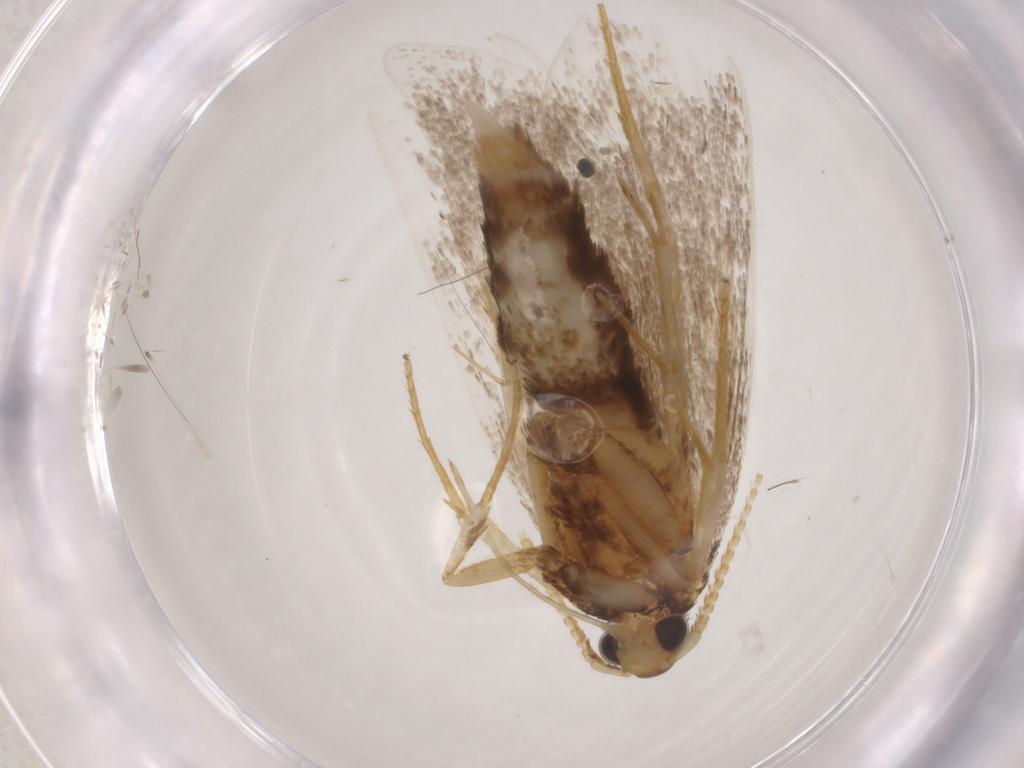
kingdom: Animalia
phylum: Arthropoda
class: Insecta
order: Lepidoptera
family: Lecithoceridae
